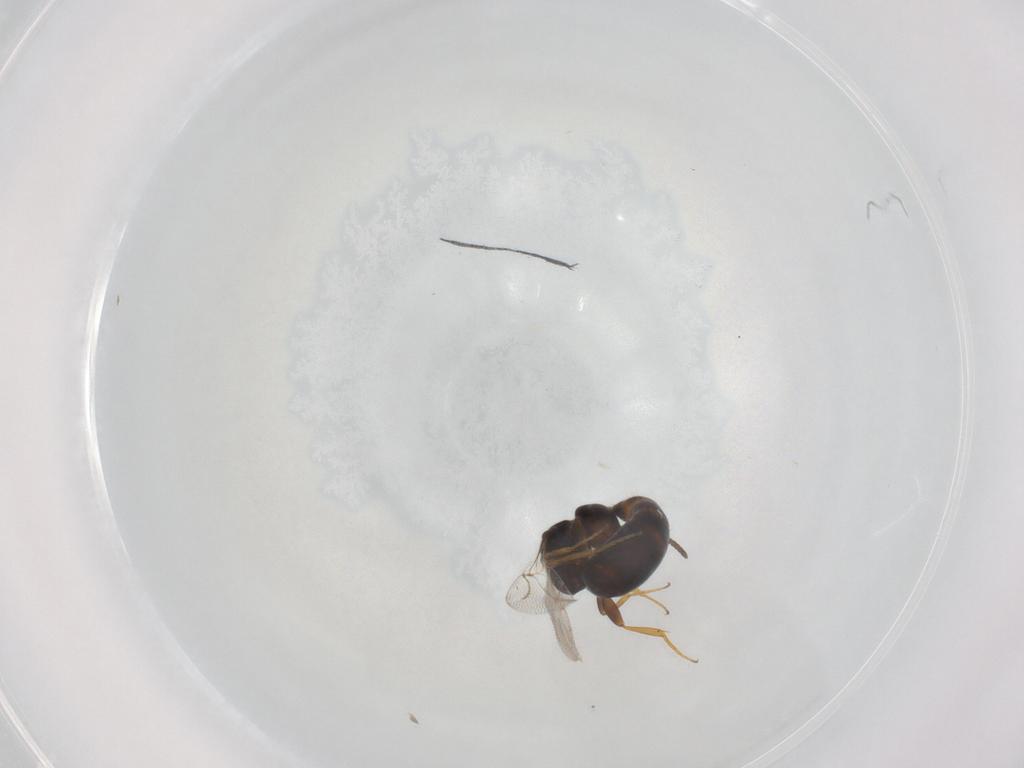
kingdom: Animalia
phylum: Arthropoda
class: Insecta
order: Hymenoptera
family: Bethylidae
